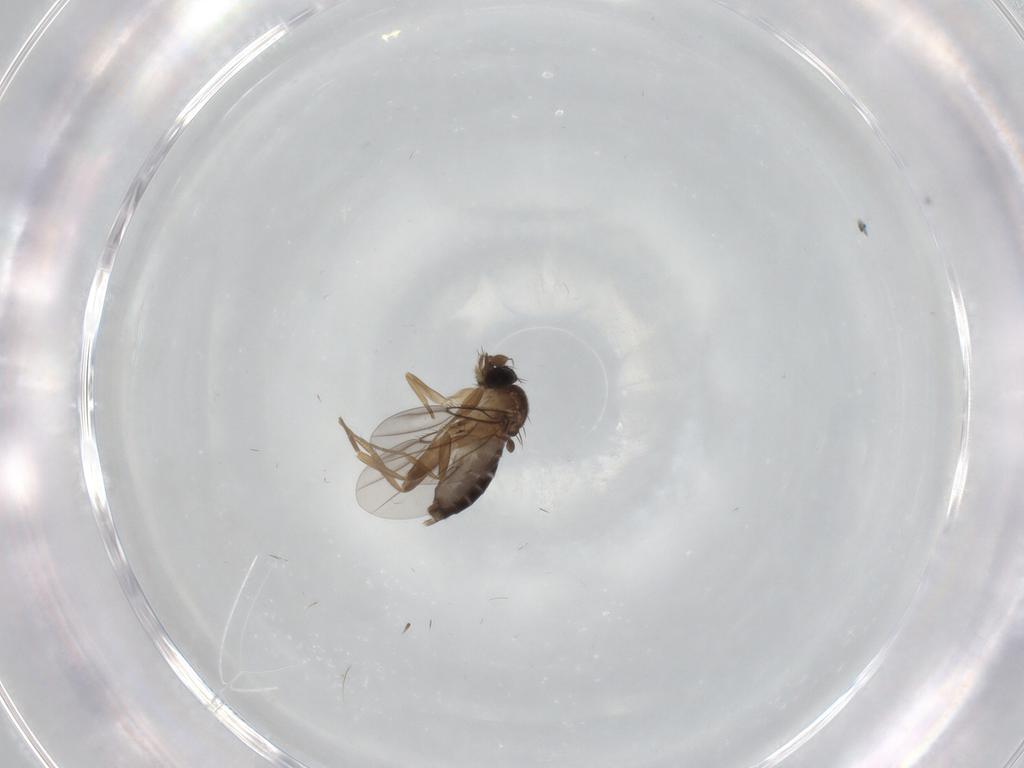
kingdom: Animalia
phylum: Arthropoda
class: Insecta
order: Diptera
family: Phoridae
